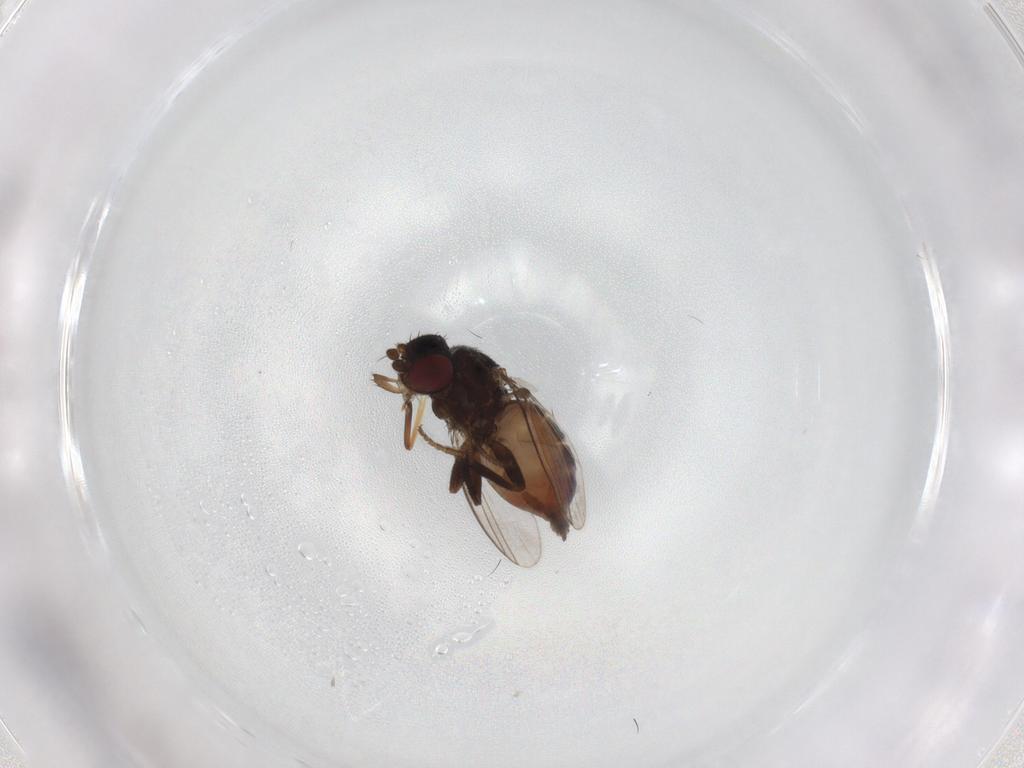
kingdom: Animalia
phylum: Arthropoda
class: Insecta
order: Diptera
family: Milichiidae
